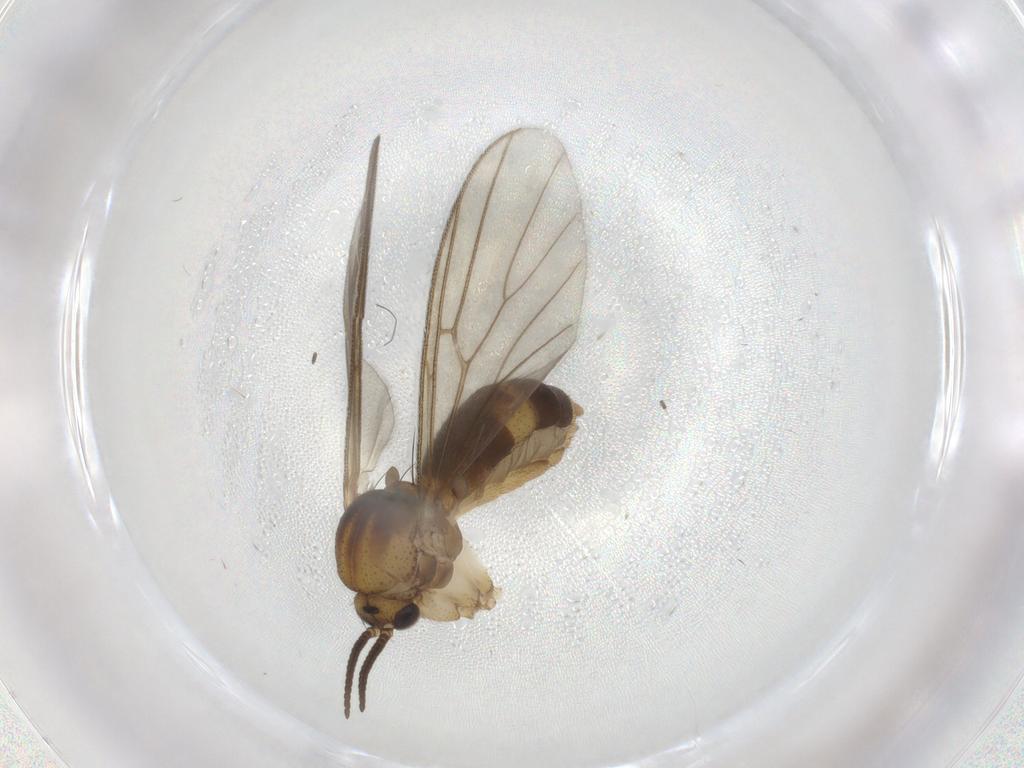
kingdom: Animalia
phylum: Arthropoda
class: Insecta
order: Diptera
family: Mycetophilidae
